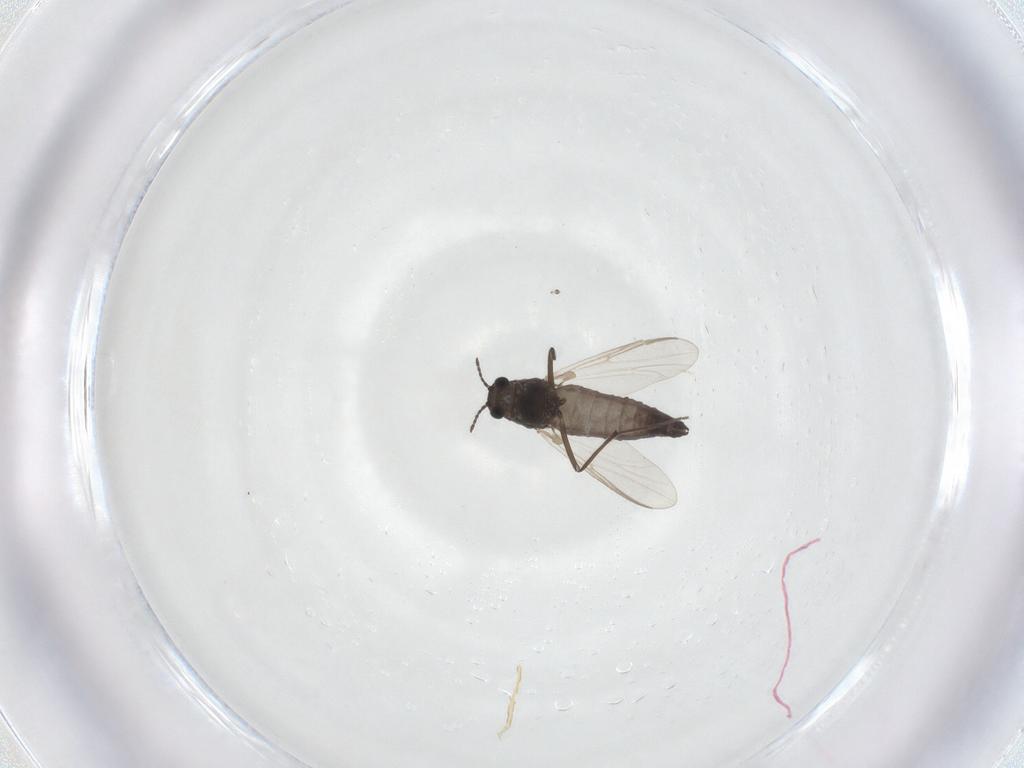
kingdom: Animalia
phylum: Arthropoda
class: Insecta
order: Diptera
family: Chironomidae
